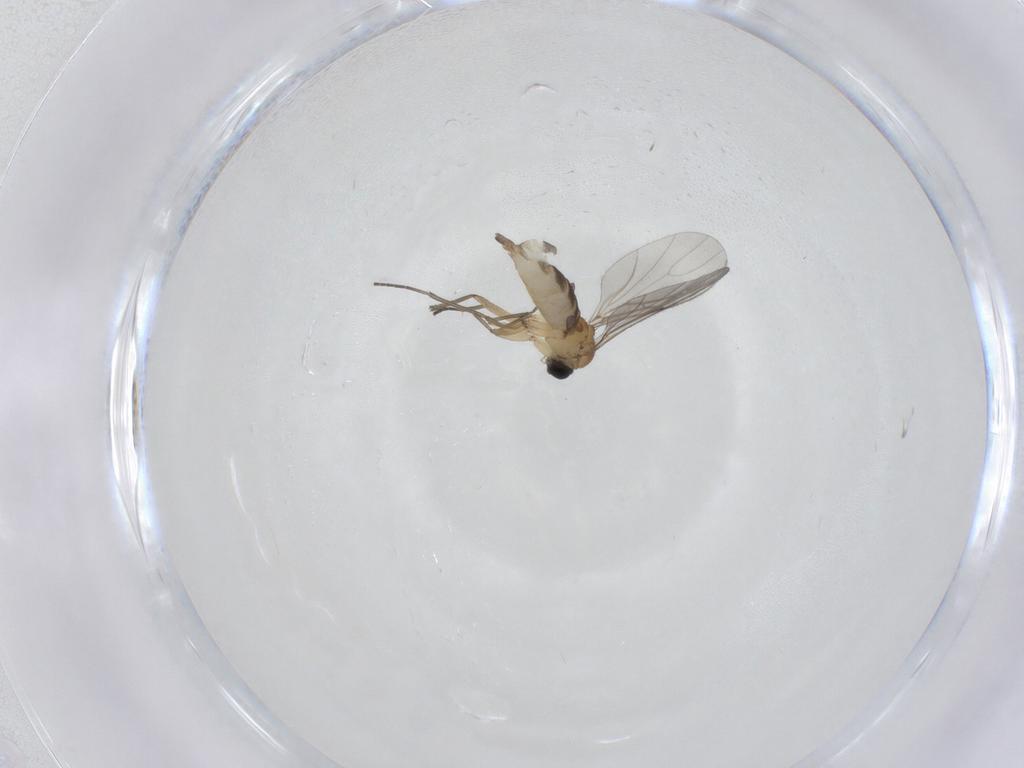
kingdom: Animalia
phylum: Arthropoda
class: Insecta
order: Diptera
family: Sciaridae
